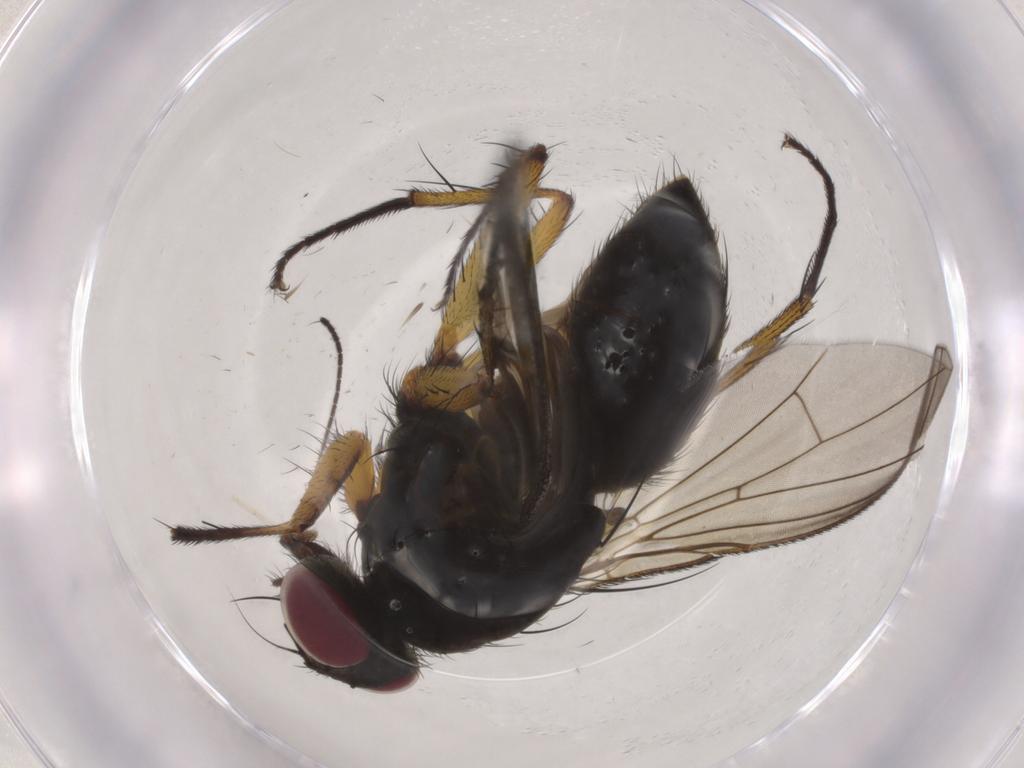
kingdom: Animalia
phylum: Arthropoda
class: Insecta
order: Diptera
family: Muscidae
